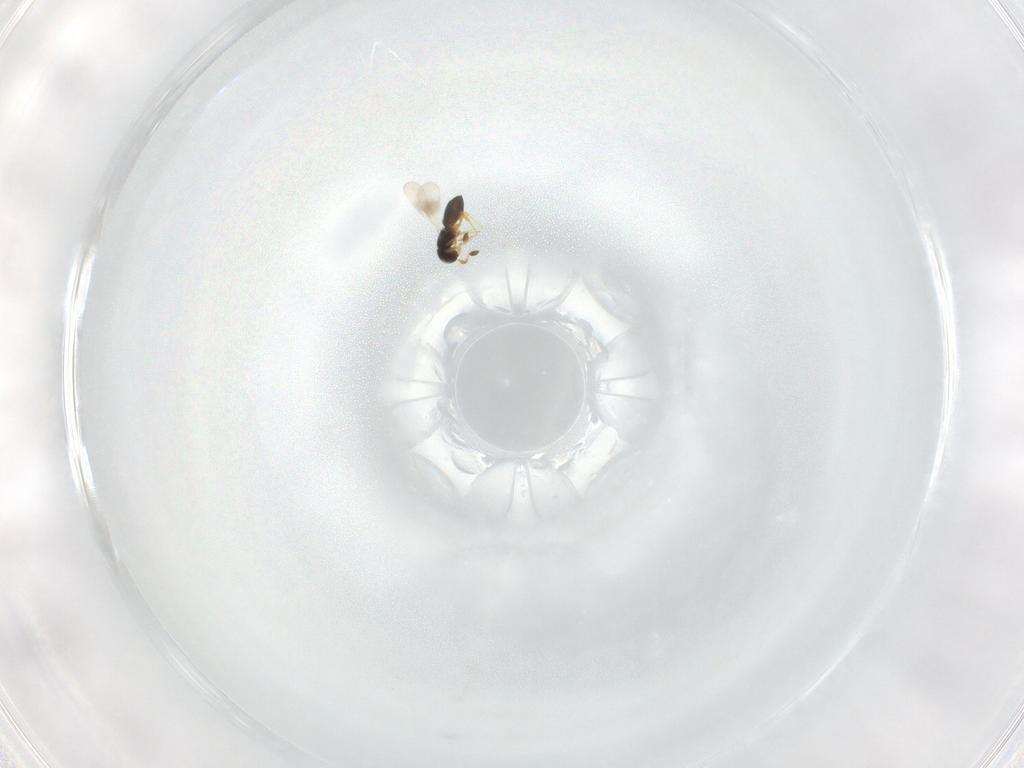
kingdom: Animalia
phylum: Arthropoda
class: Insecta
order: Hymenoptera
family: Platygastridae
